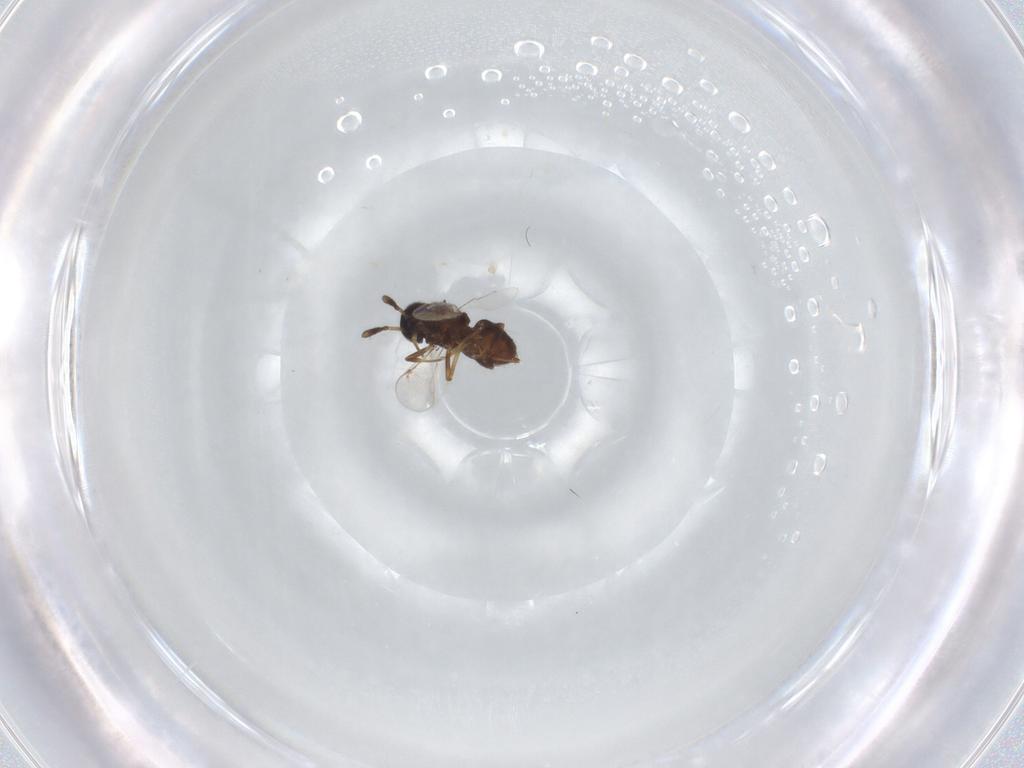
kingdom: Animalia
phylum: Arthropoda
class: Insecta
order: Hymenoptera
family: Encyrtidae
